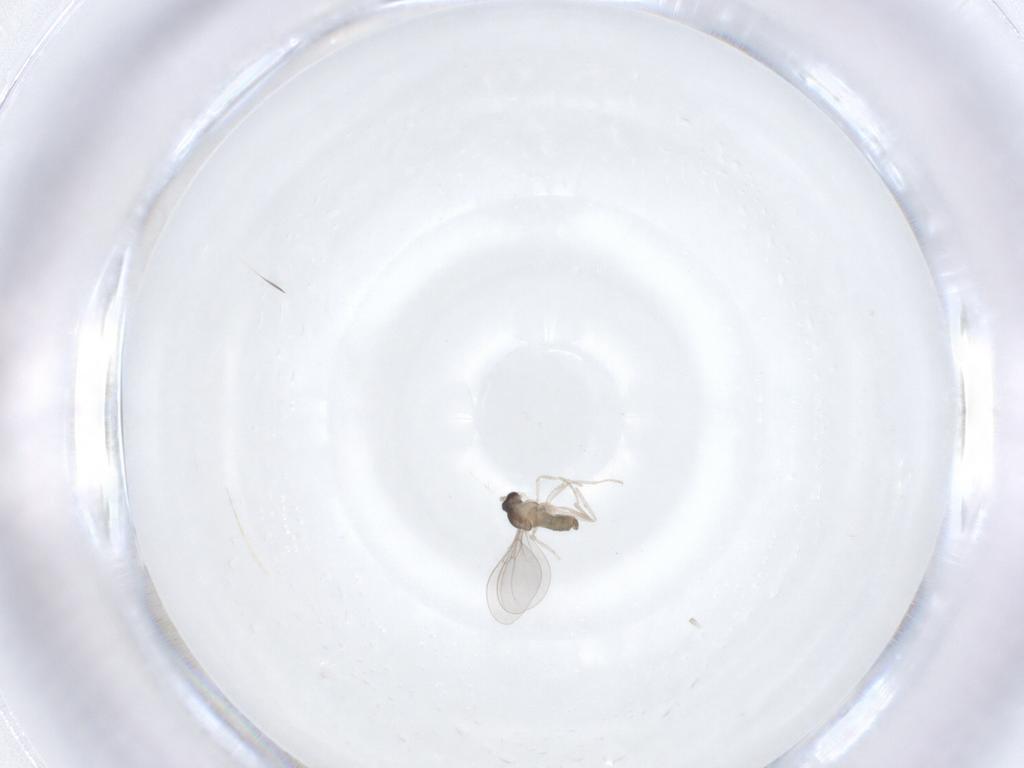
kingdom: Animalia
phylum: Arthropoda
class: Insecta
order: Diptera
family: Cecidomyiidae
